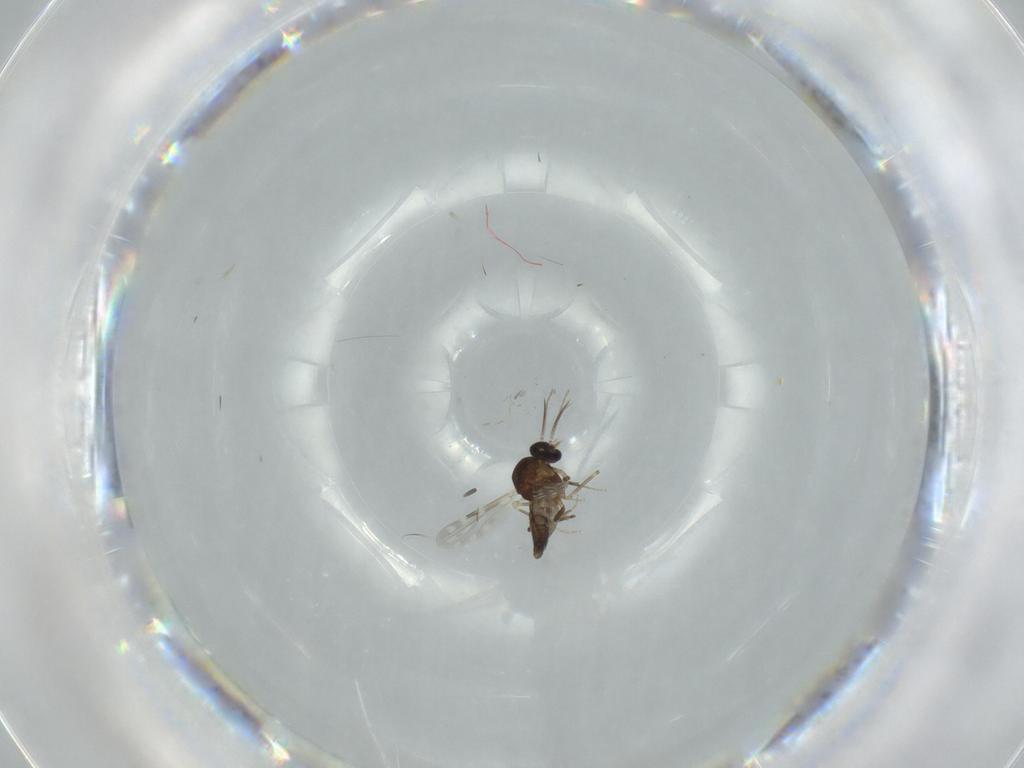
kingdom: Animalia
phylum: Arthropoda
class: Insecta
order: Diptera
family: Ceratopogonidae
